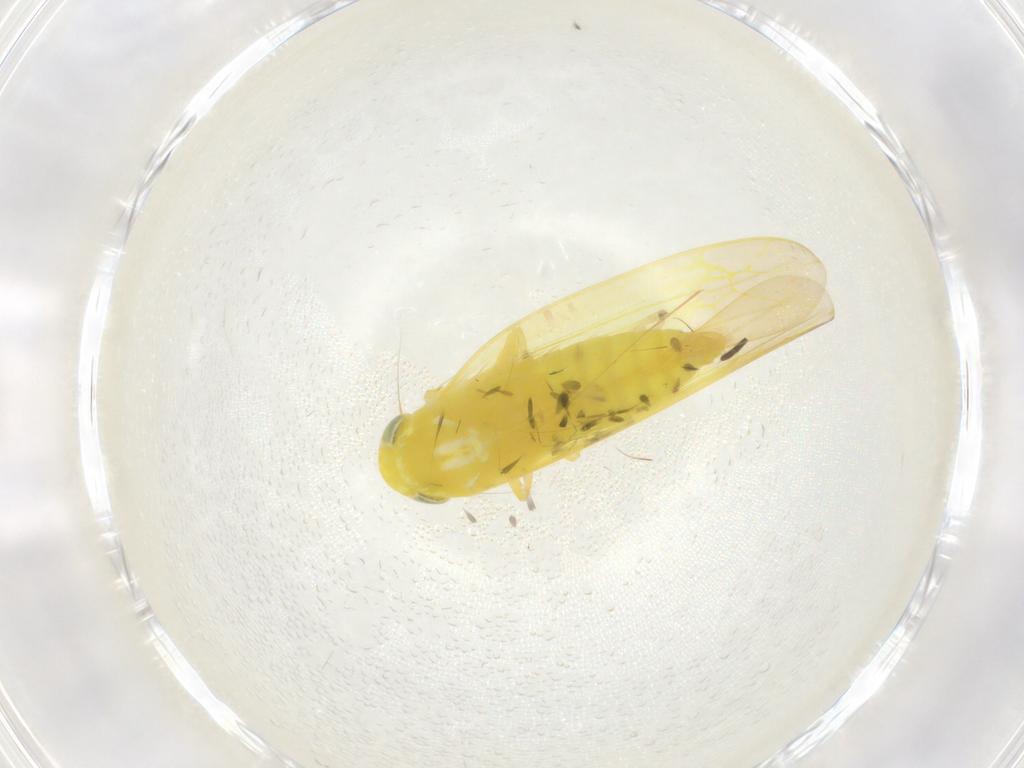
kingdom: Animalia
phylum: Arthropoda
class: Insecta
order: Hemiptera
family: Cicadellidae
